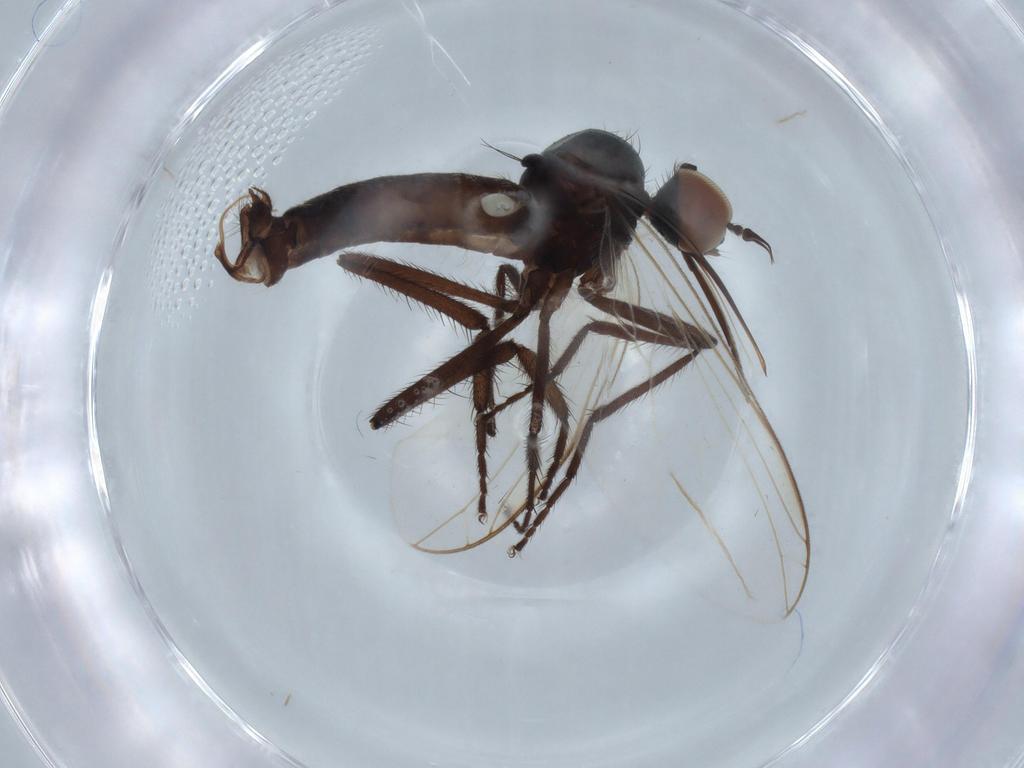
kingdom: Animalia
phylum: Arthropoda
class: Insecta
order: Diptera
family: Empididae
